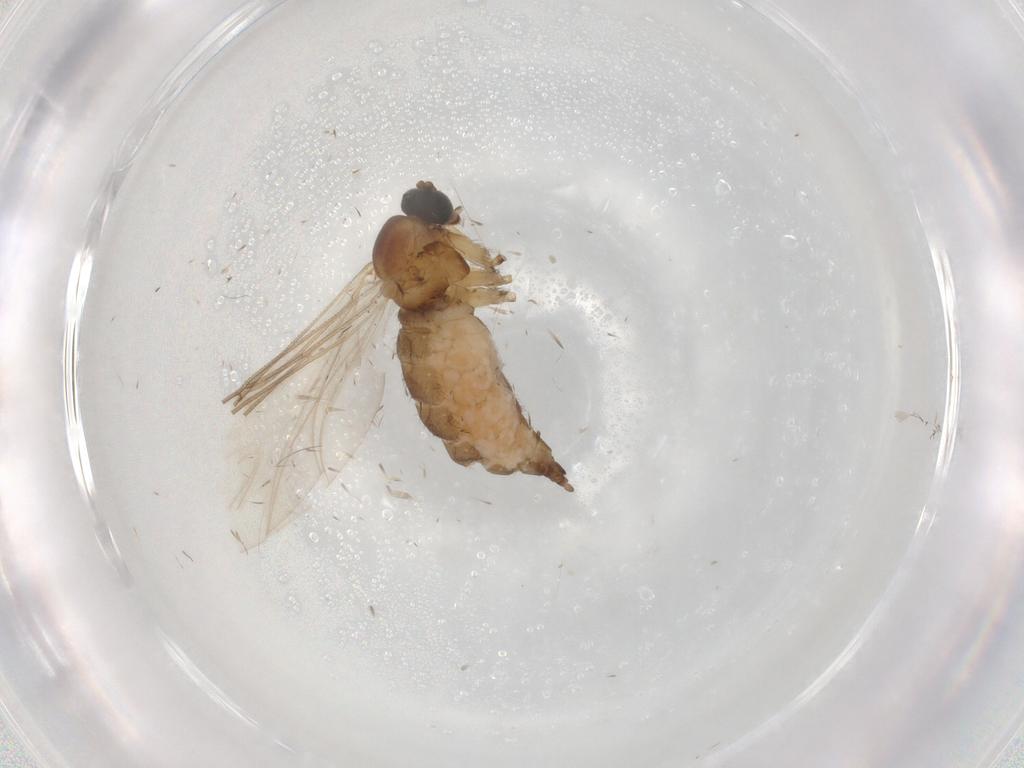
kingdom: Animalia
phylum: Arthropoda
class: Insecta
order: Diptera
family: Sciaridae
